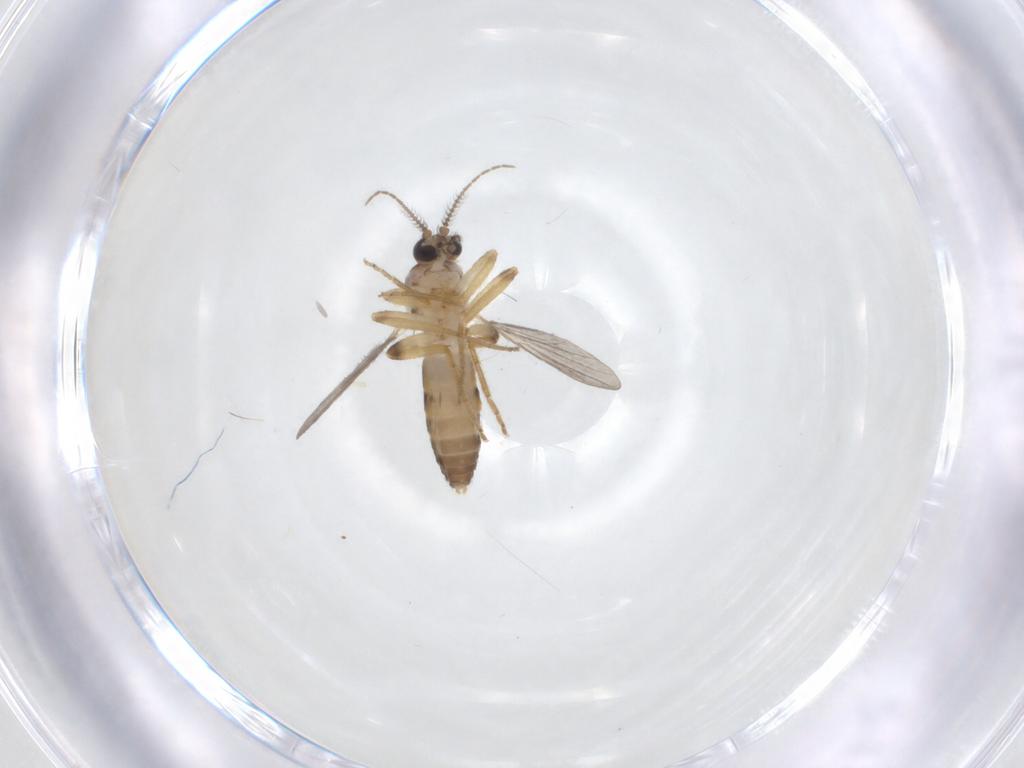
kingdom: Animalia
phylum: Arthropoda
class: Insecta
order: Diptera
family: Ceratopogonidae
